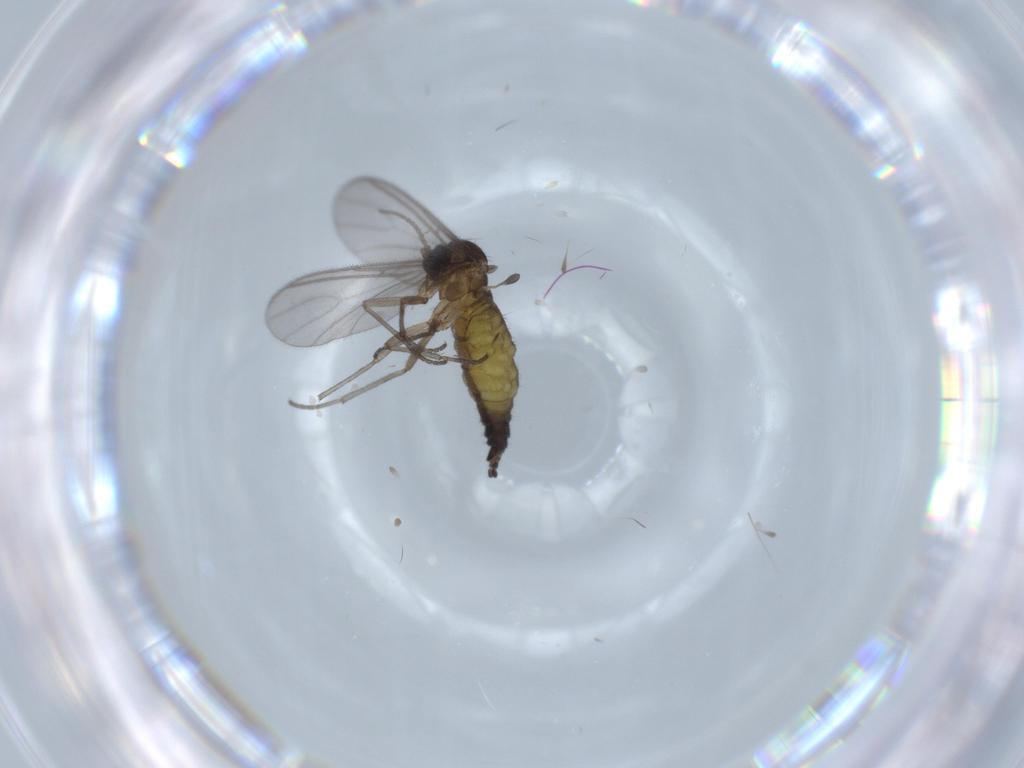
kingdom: Animalia
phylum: Arthropoda
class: Insecta
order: Diptera
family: Sciaridae
